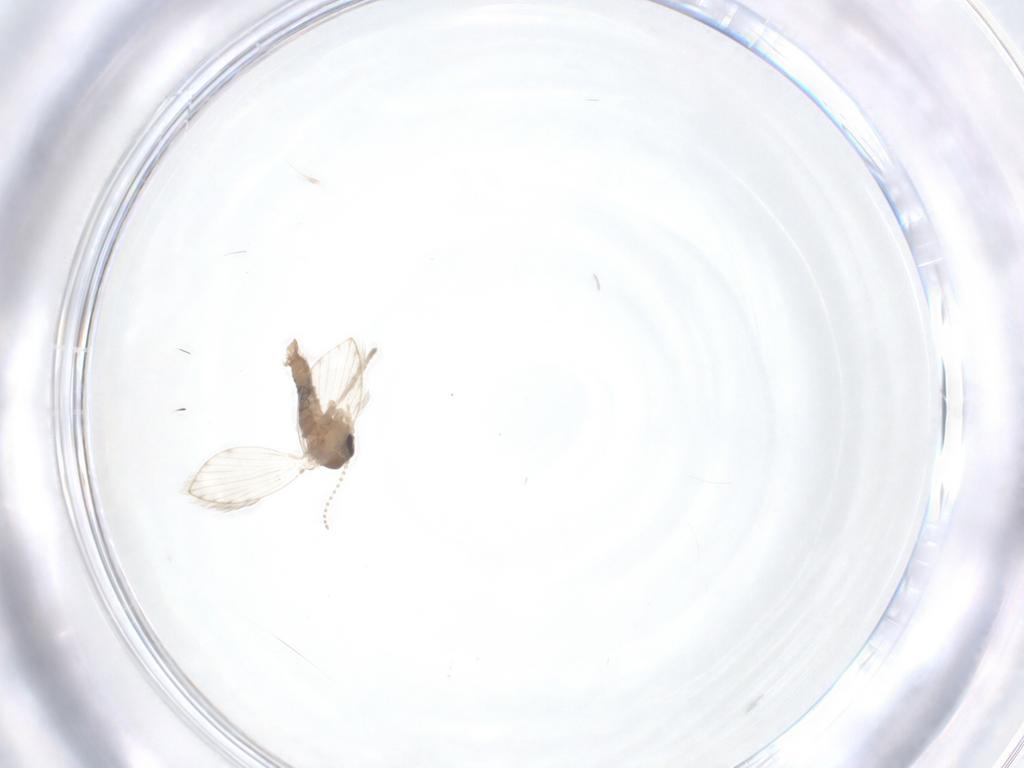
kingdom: Animalia
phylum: Arthropoda
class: Insecta
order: Diptera
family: Psychodidae
